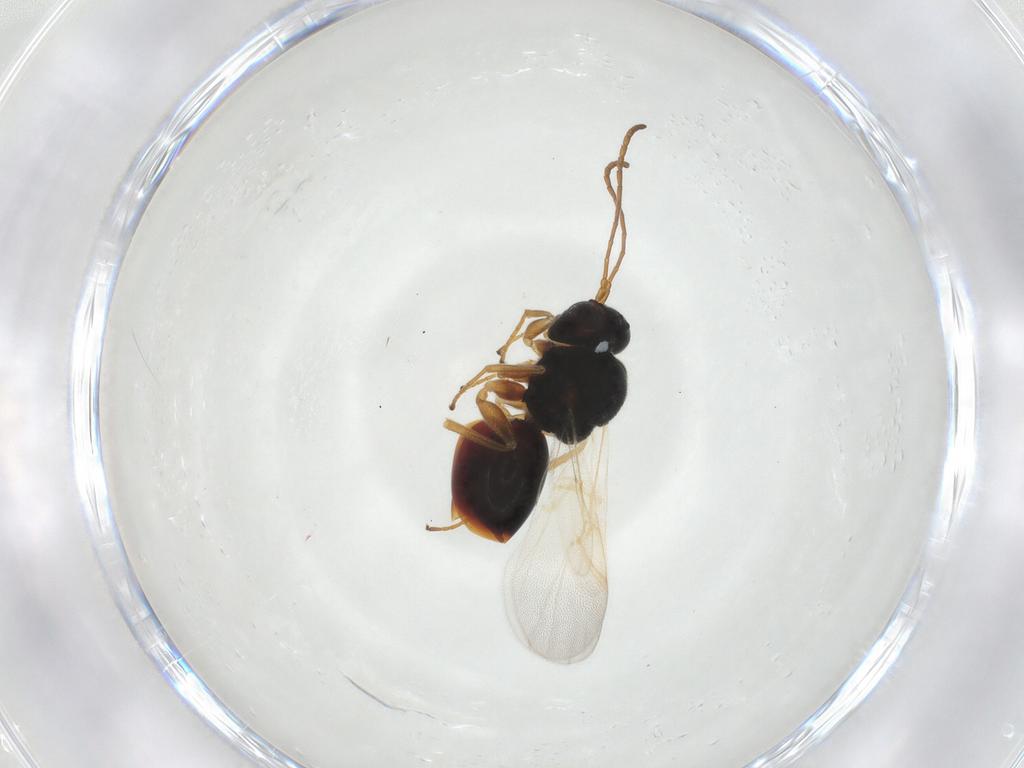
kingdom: Animalia
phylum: Arthropoda
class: Insecta
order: Hymenoptera
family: Cynipidae
